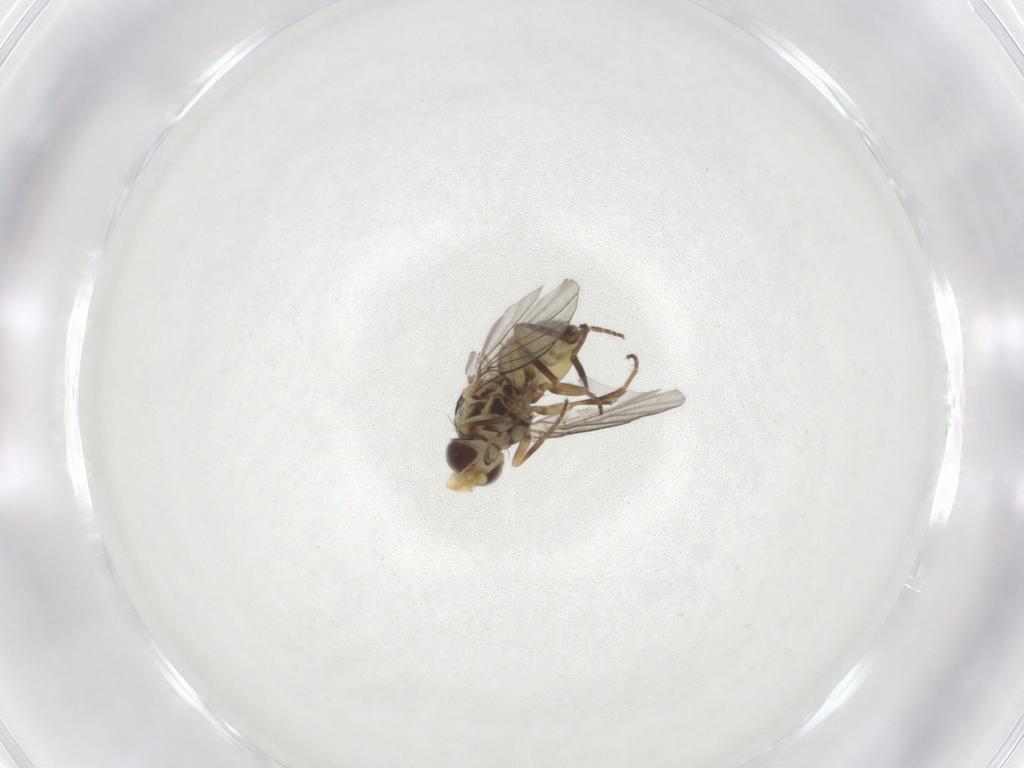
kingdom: Animalia
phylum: Arthropoda
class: Insecta
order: Diptera
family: Agromyzidae
